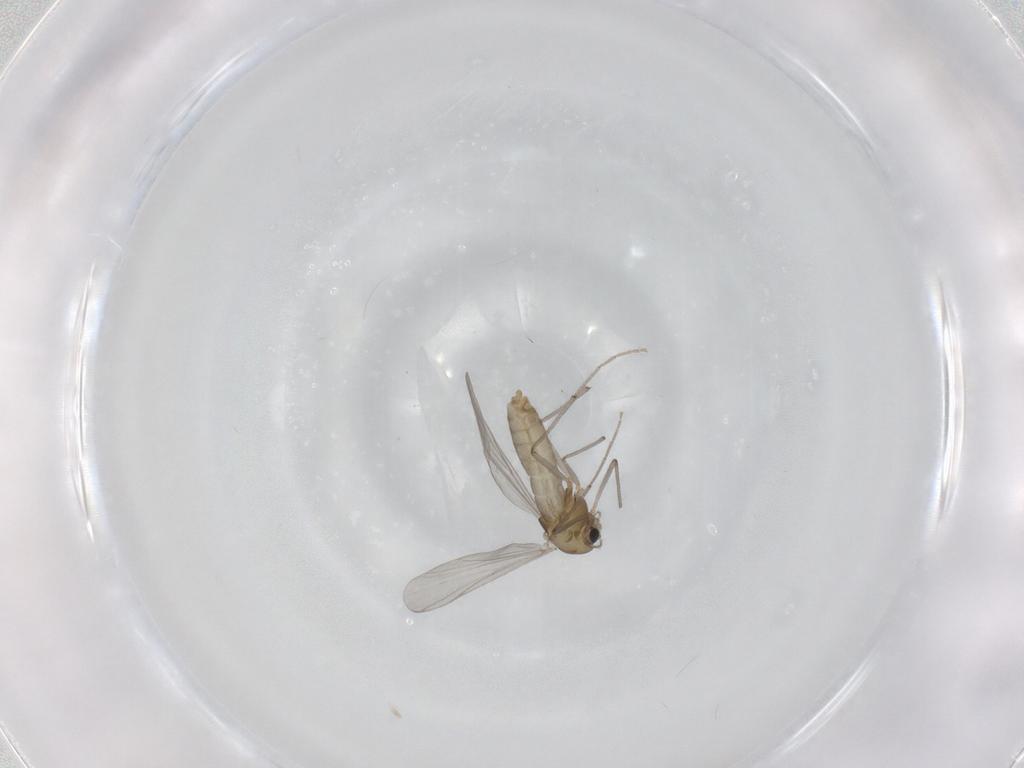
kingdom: Animalia
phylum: Arthropoda
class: Insecta
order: Diptera
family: Chironomidae
